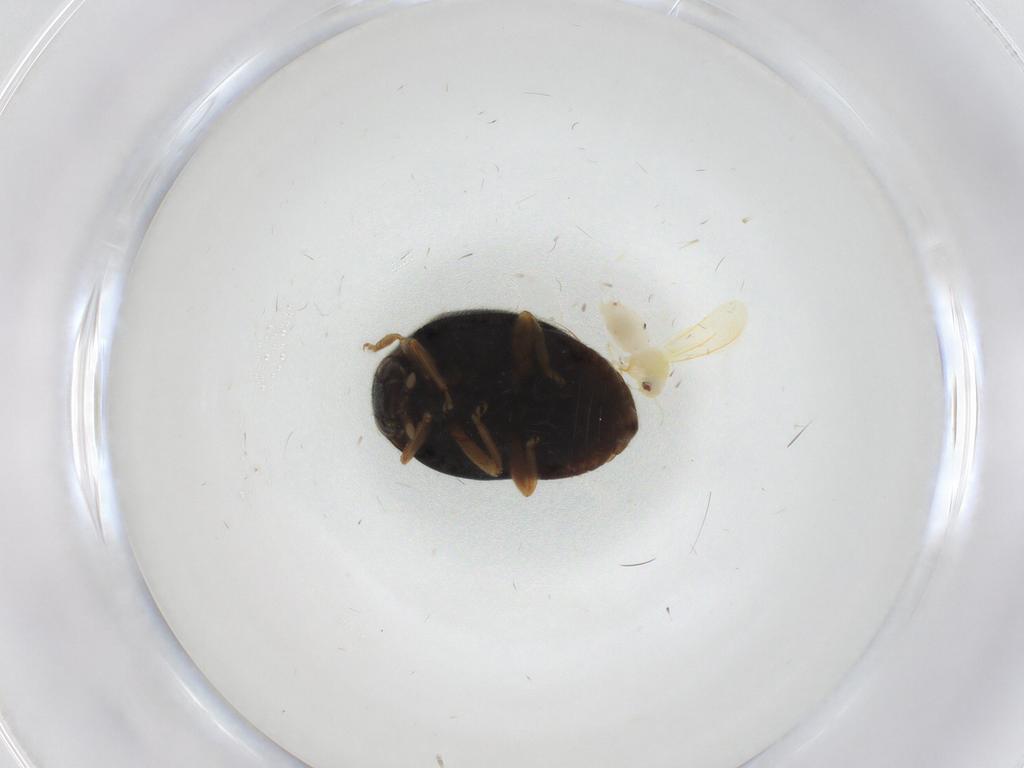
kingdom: Animalia
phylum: Arthropoda
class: Insecta
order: Coleoptera
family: Coccinellidae
